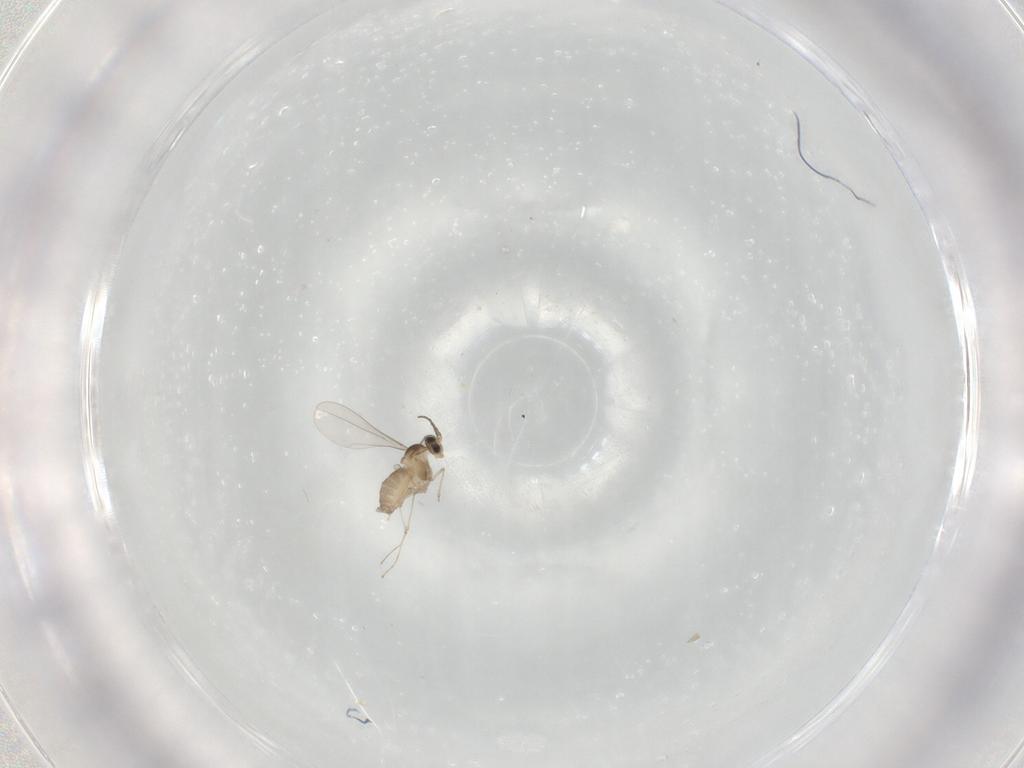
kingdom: Animalia
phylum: Arthropoda
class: Insecta
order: Diptera
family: Cecidomyiidae
